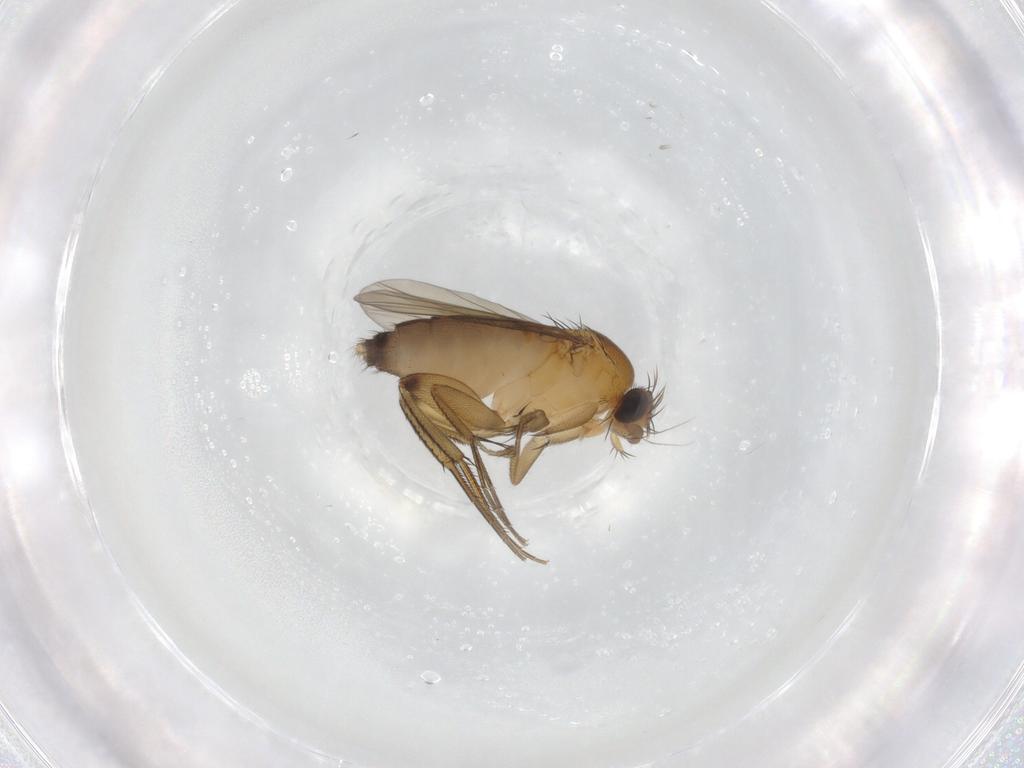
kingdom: Animalia
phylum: Arthropoda
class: Insecta
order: Diptera
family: Phoridae
